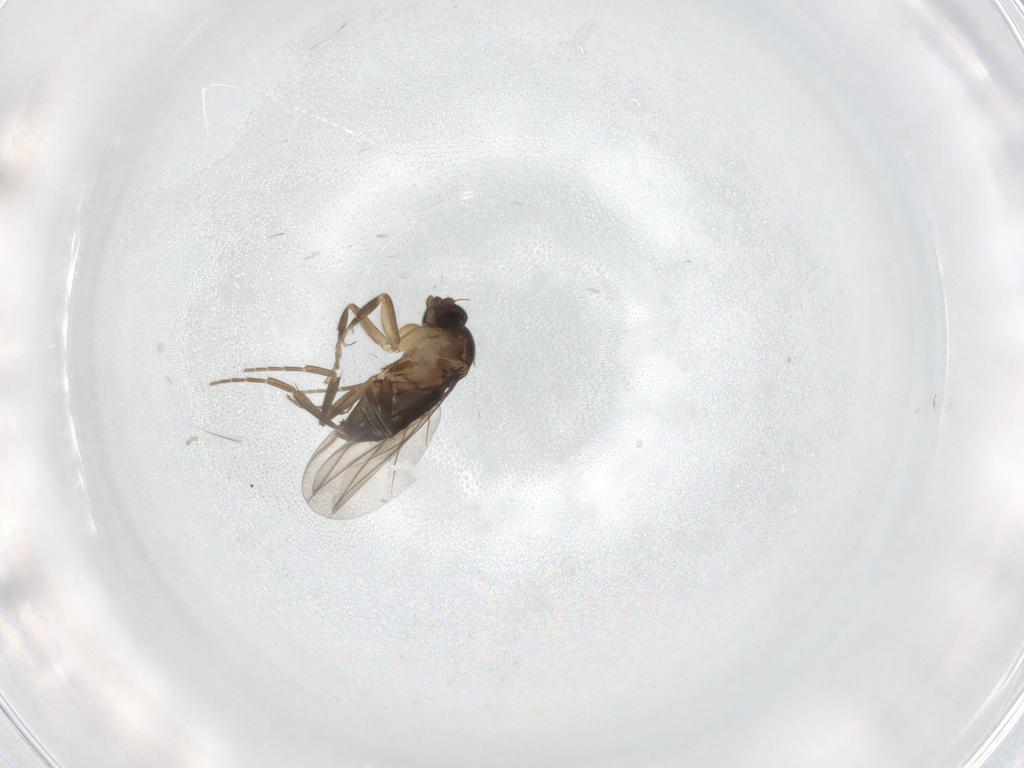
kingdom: Animalia
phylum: Arthropoda
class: Insecta
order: Diptera
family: Phoridae
